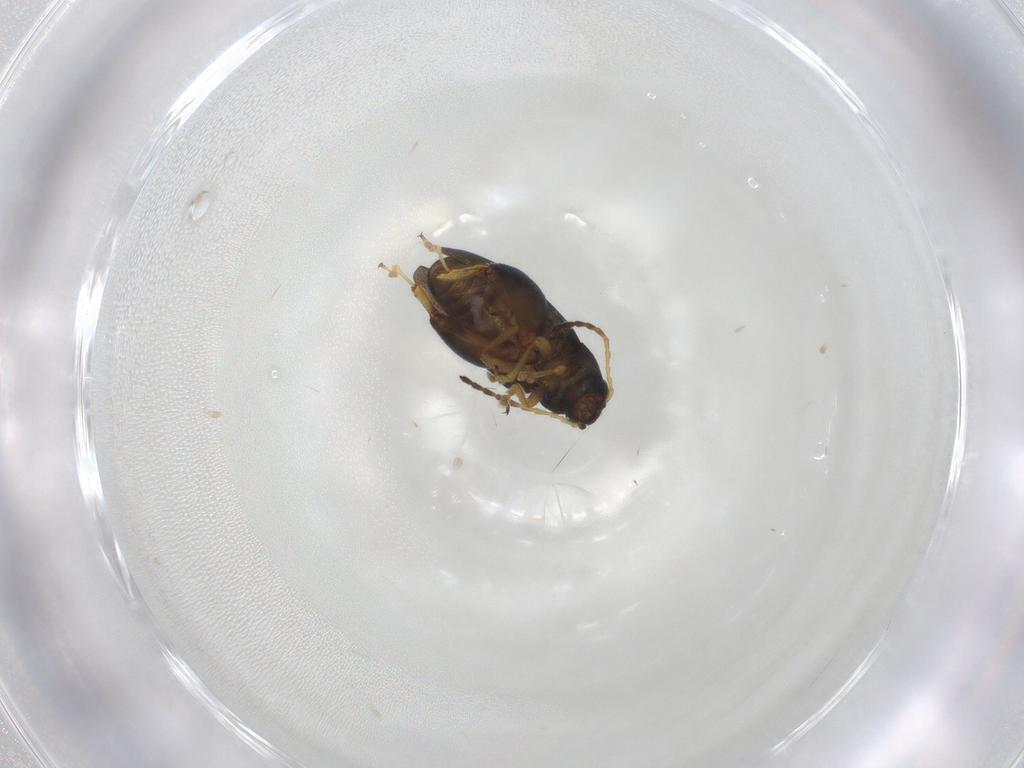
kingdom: Animalia
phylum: Arthropoda
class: Insecta
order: Coleoptera
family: Chrysomelidae
